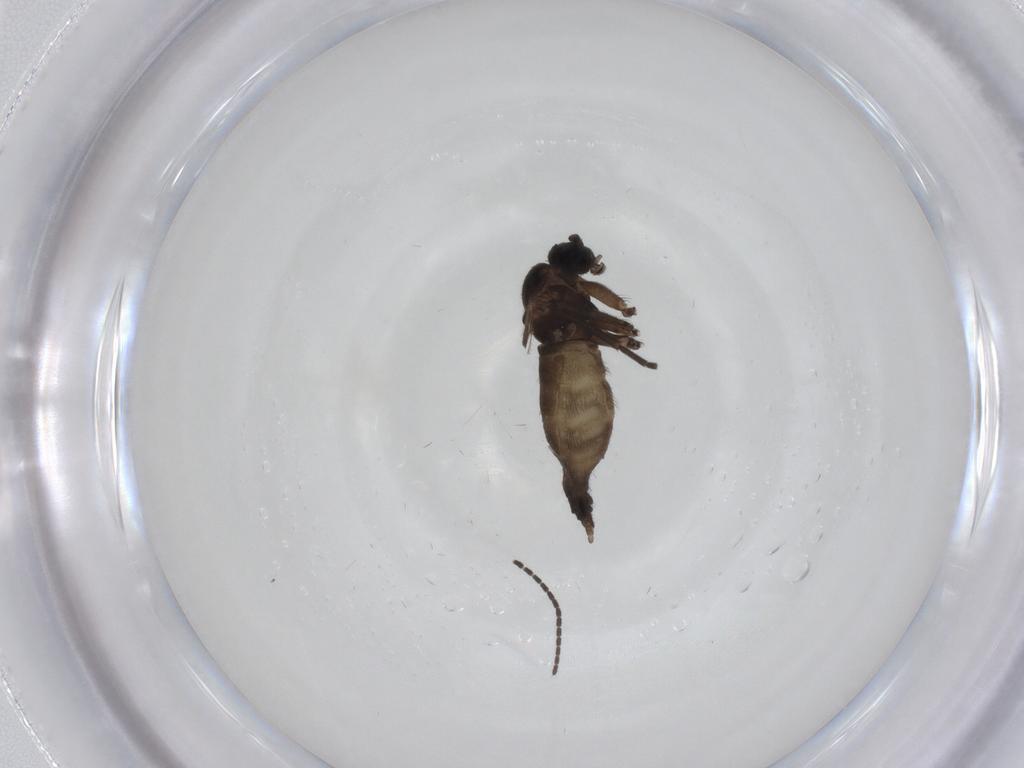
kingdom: Animalia
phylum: Arthropoda
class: Insecta
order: Diptera
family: Sciaridae
